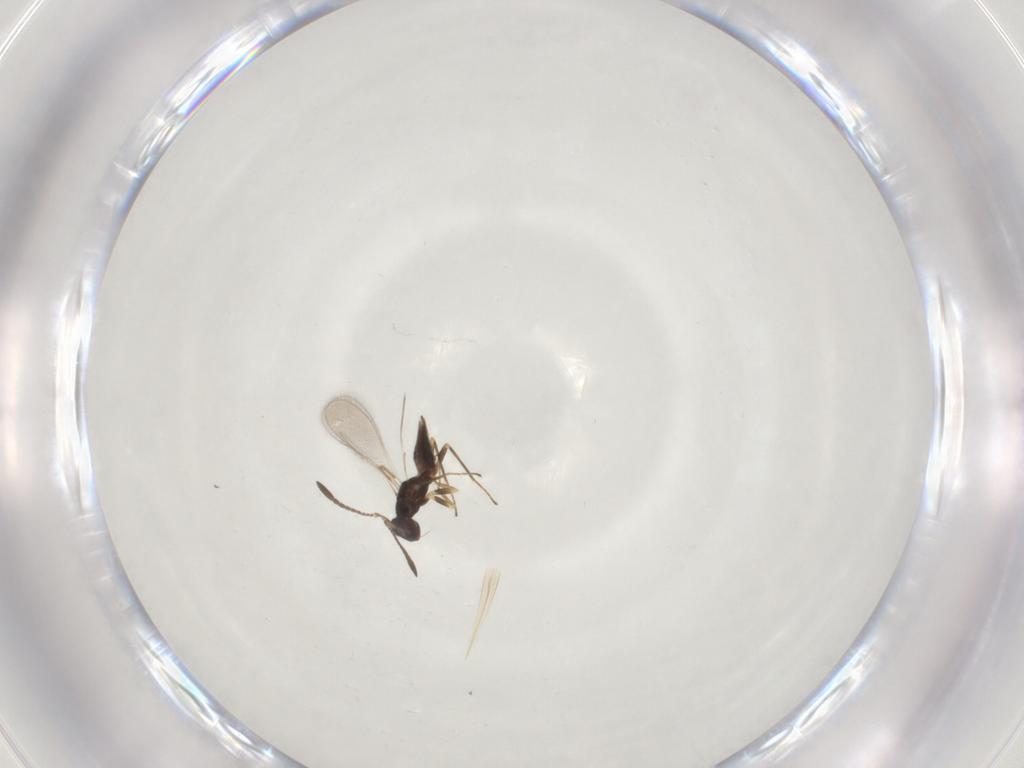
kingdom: Animalia
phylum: Arthropoda
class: Insecta
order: Hymenoptera
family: Mymaridae
